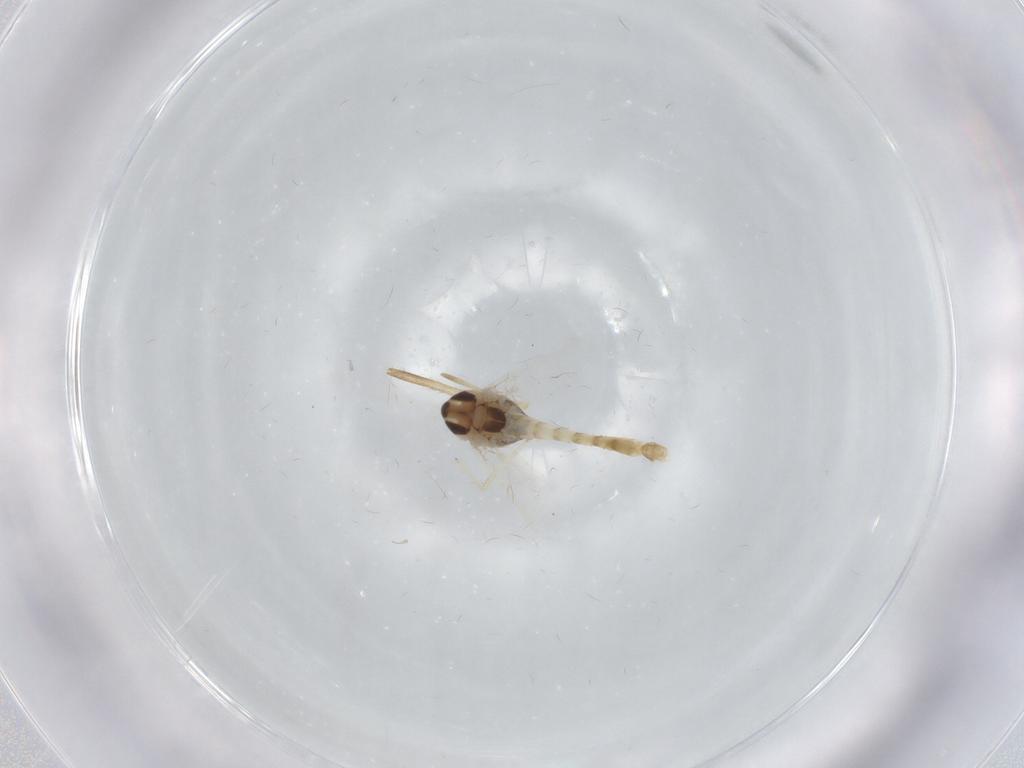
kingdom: Animalia
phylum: Arthropoda
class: Insecta
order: Diptera
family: Chironomidae
